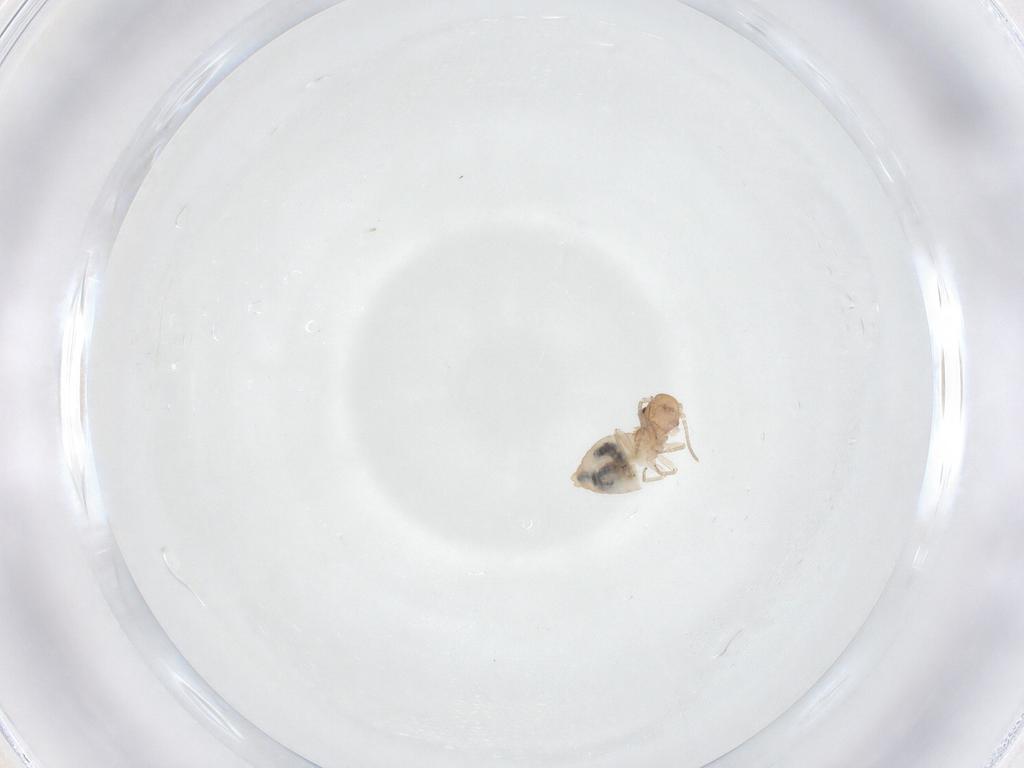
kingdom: Animalia
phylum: Arthropoda
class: Insecta
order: Psocodea
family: Caeciliusidae
